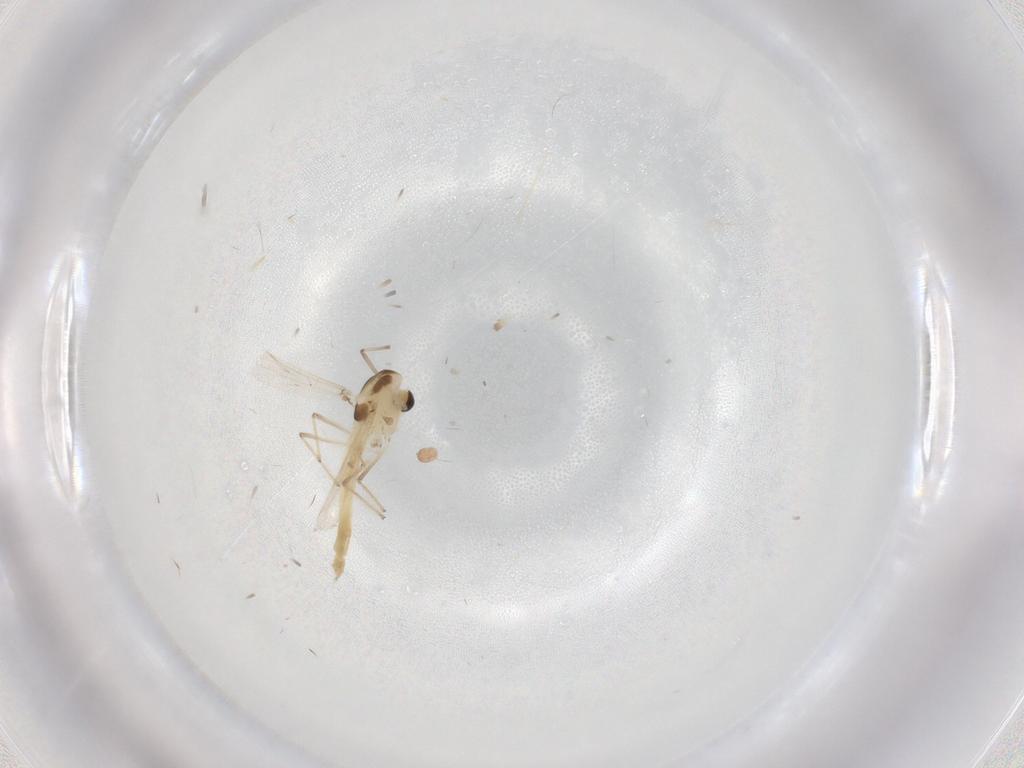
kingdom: Animalia
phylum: Arthropoda
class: Insecta
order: Diptera
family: Chironomidae
